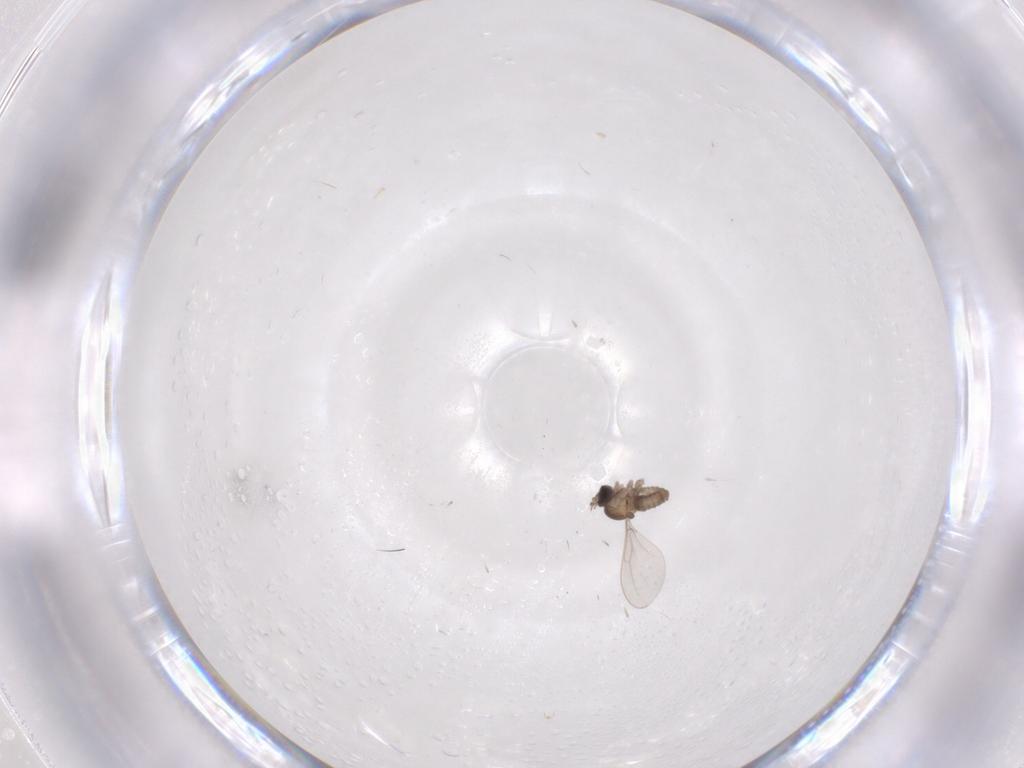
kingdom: Animalia
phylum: Arthropoda
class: Insecta
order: Diptera
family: Cecidomyiidae
